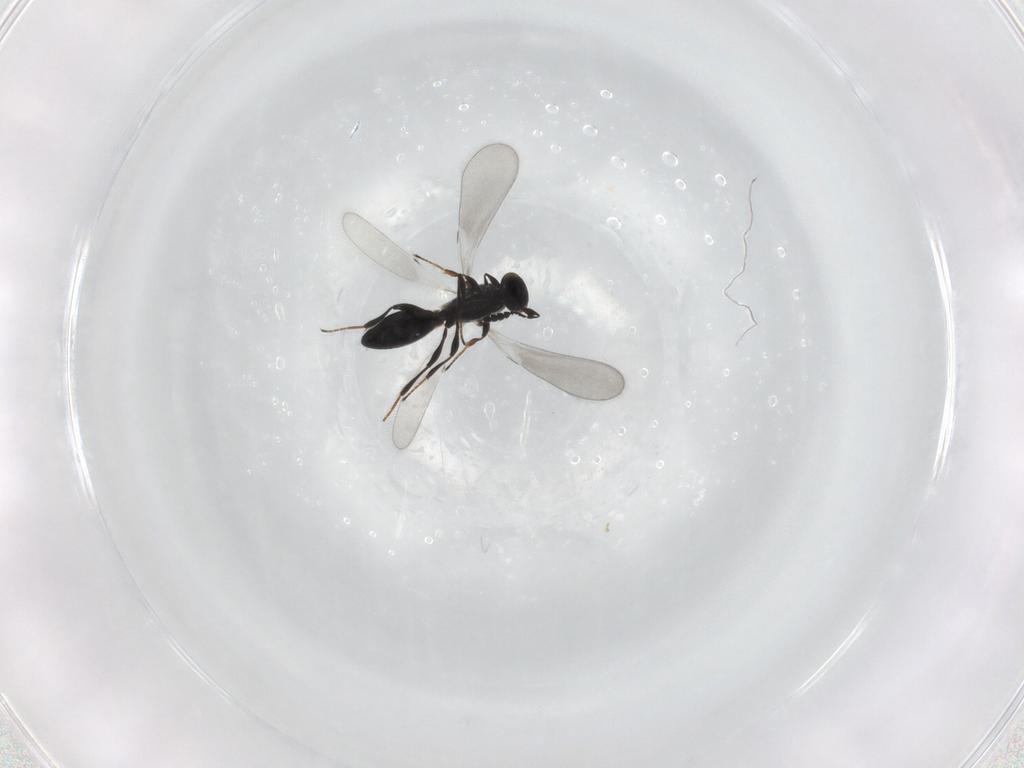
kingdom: Animalia
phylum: Arthropoda
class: Insecta
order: Hymenoptera
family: Platygastridae
